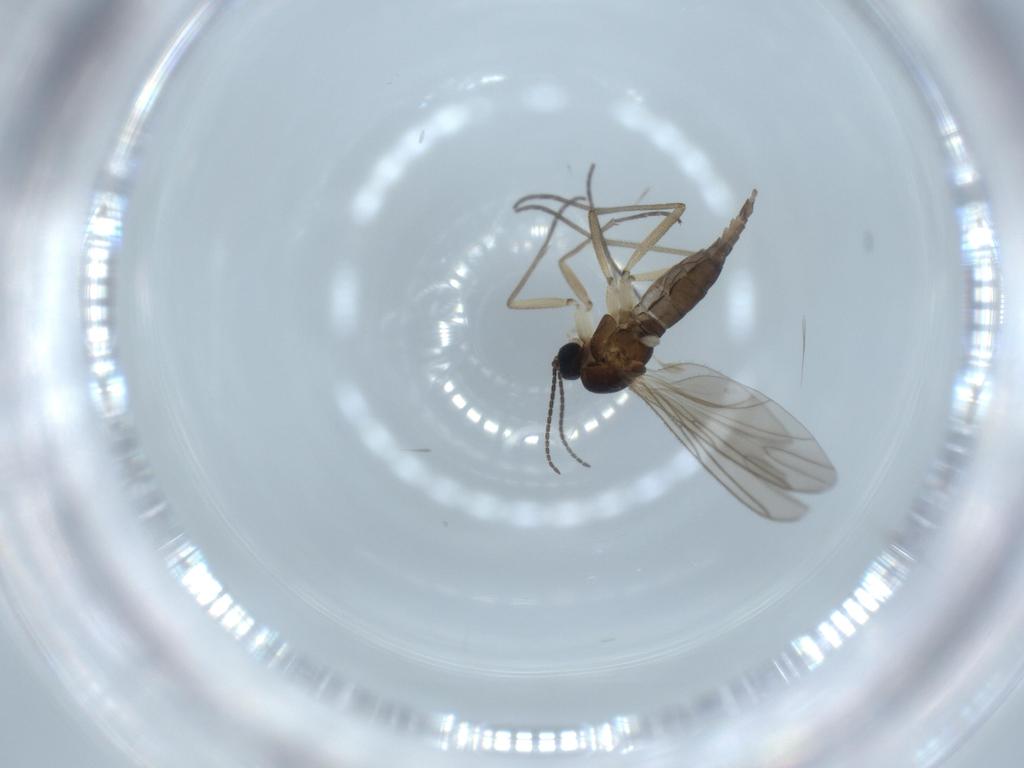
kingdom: Animalia
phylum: Arthropoda
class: Insecta
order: Diptera
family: Sciaridae
